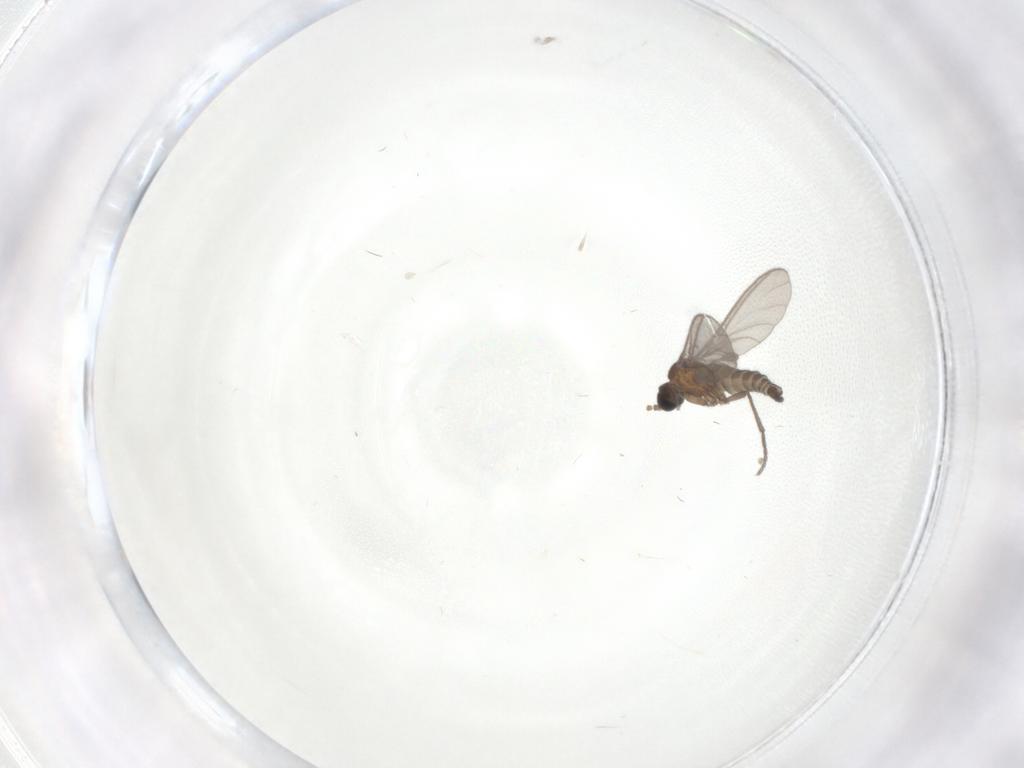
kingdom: Animalia
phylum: Arthropoda
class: Insecta
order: Diptera
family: Sciaridae
